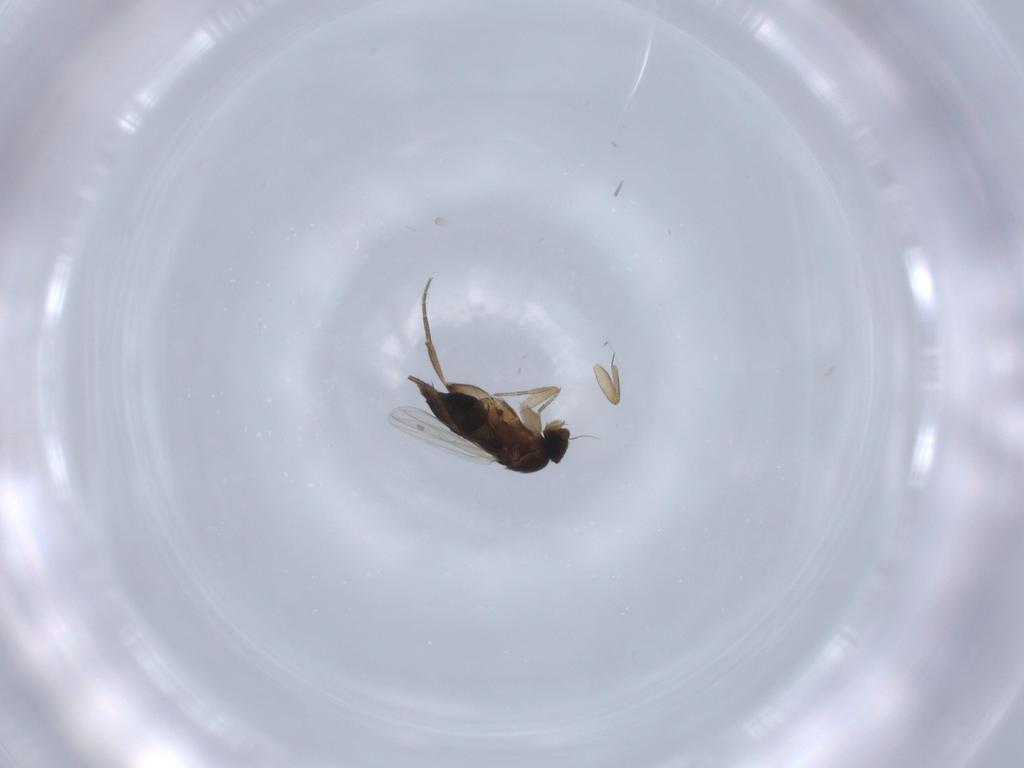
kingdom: Animalia
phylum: Arthropoda
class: Insecta
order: Diptera
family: Phoridae
